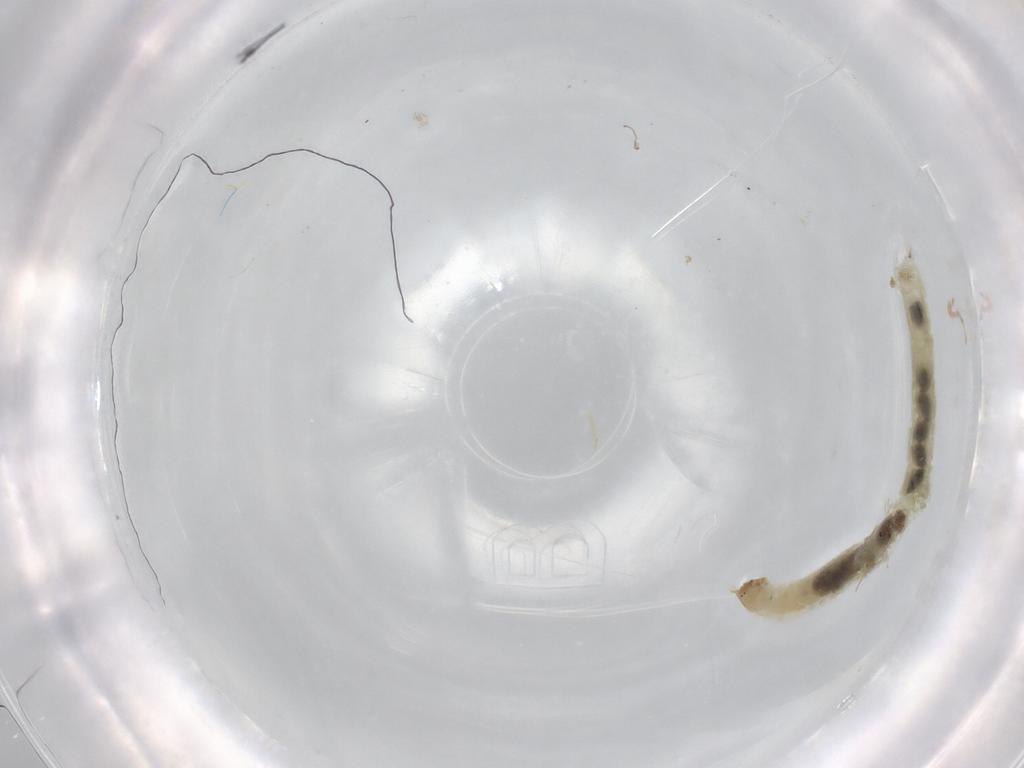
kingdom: Animalia
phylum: Arthropoda
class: Insecta
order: Diptera
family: Chironomidae
